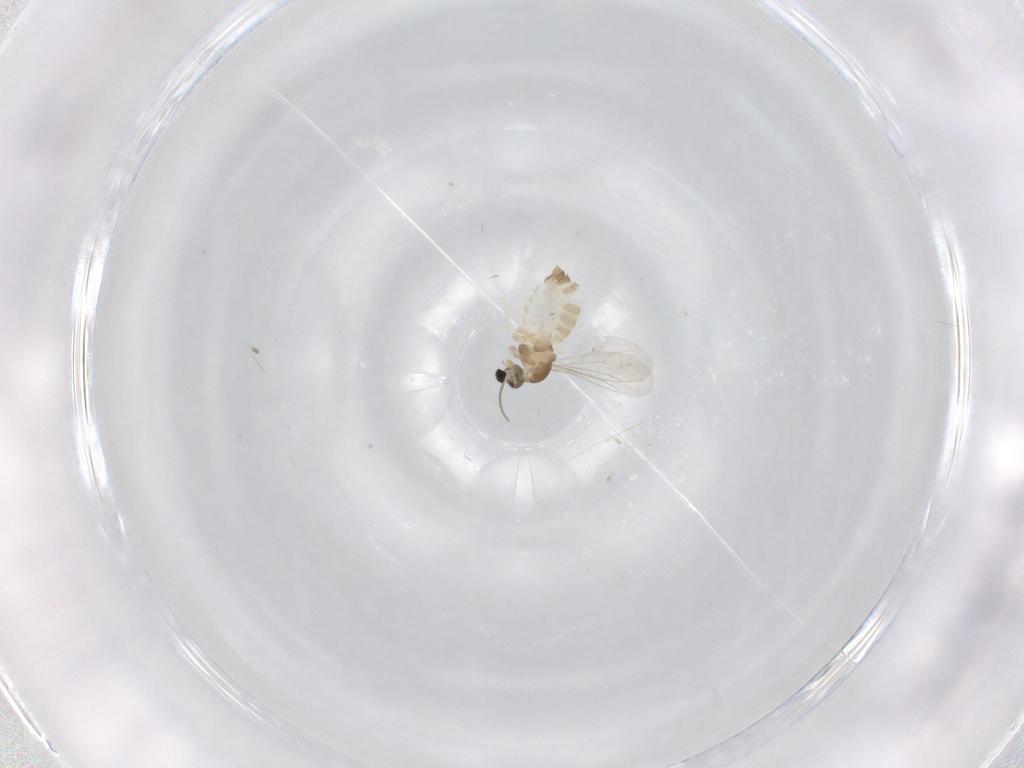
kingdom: Animalia
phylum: Arthropoda
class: Insecta
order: Diptera
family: Cecidomyiidae
